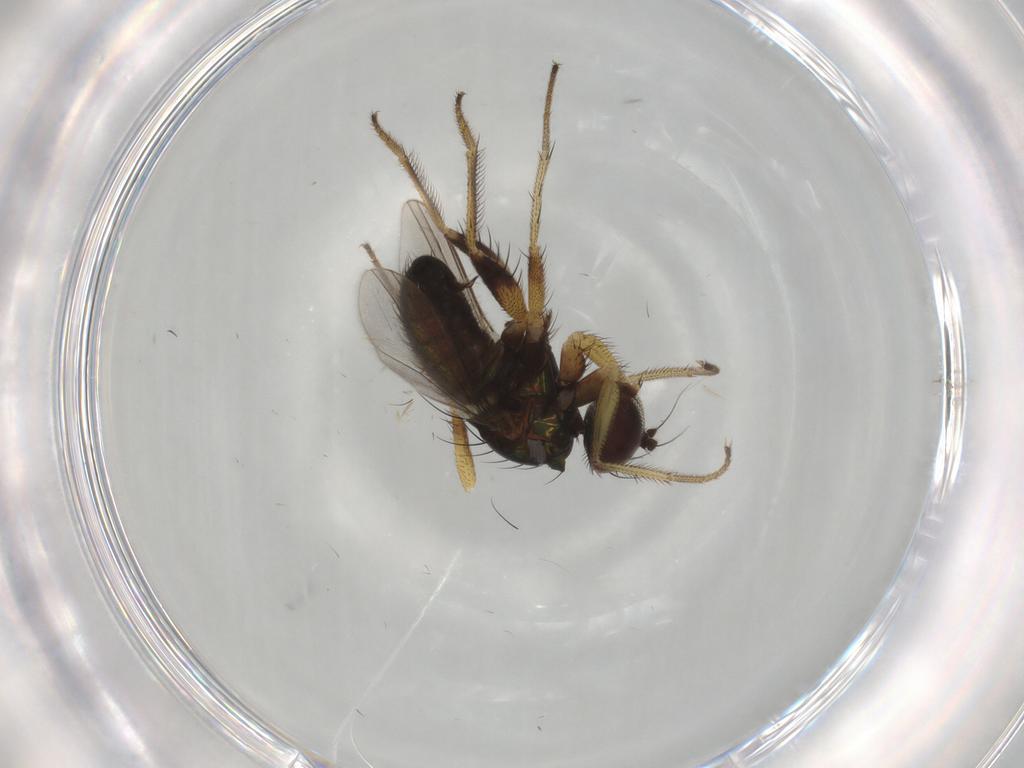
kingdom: Animalia
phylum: Arthropoda
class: Insecta
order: Diptera
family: Dolichopodidae
